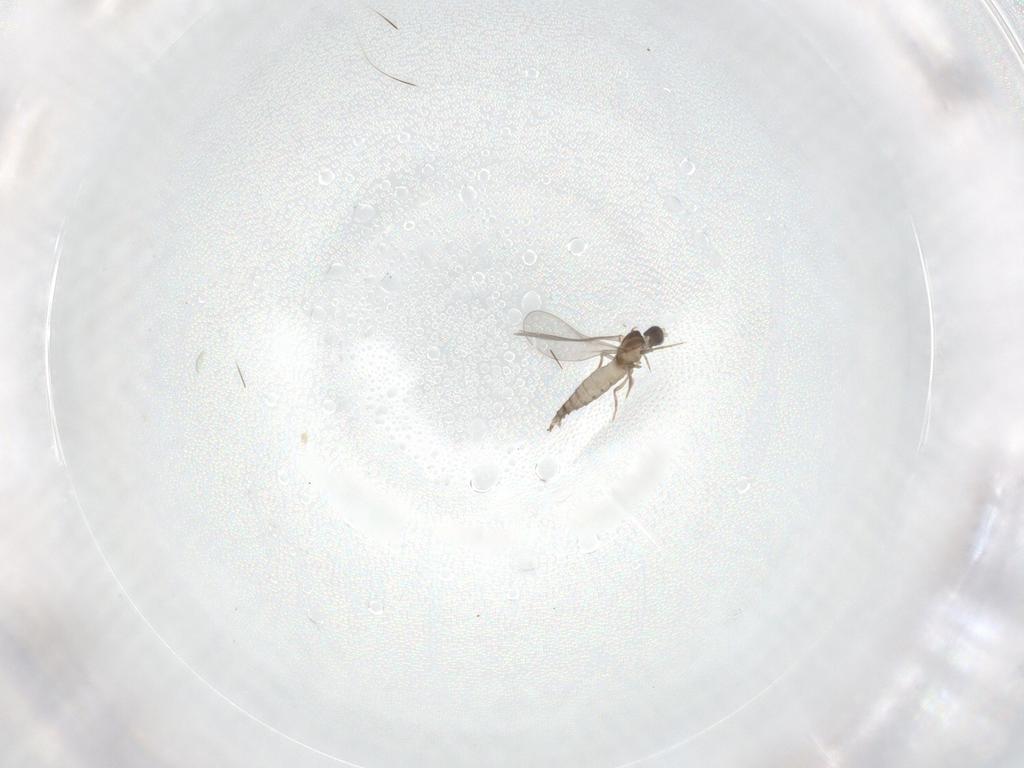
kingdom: Animalia
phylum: Arthropoda
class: Insecta
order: Diptera
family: Cecidomyiidae
